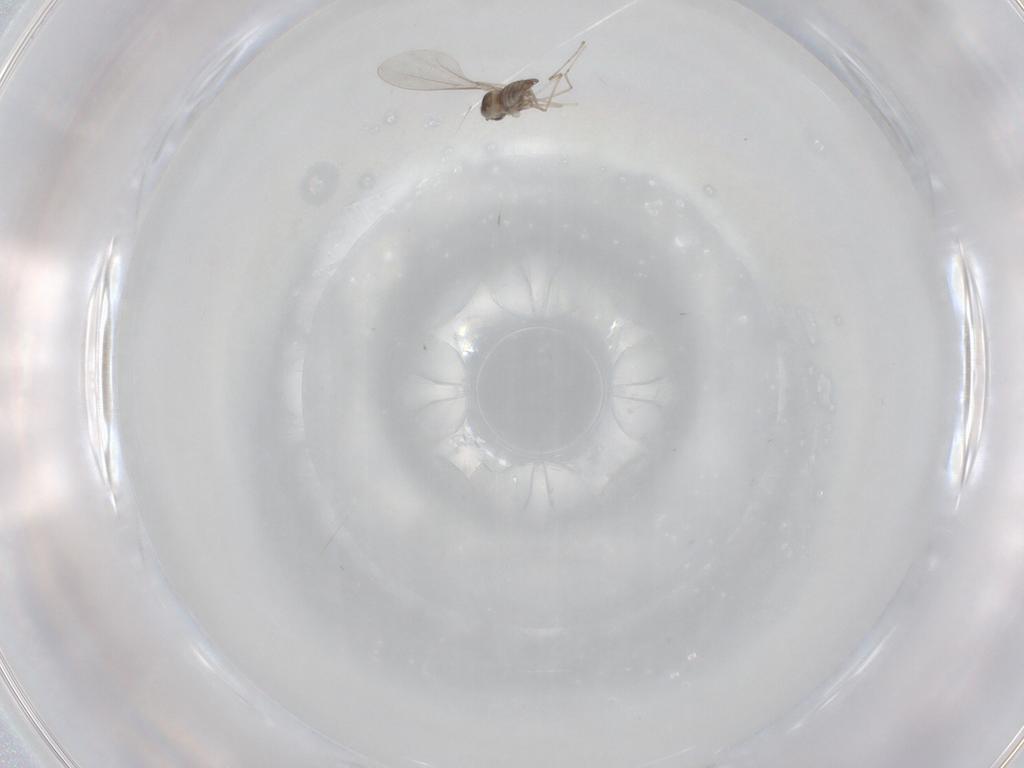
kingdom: Animalia
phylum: Arthropoda
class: Insecta
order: Diptera
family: Cecidomyiidae
